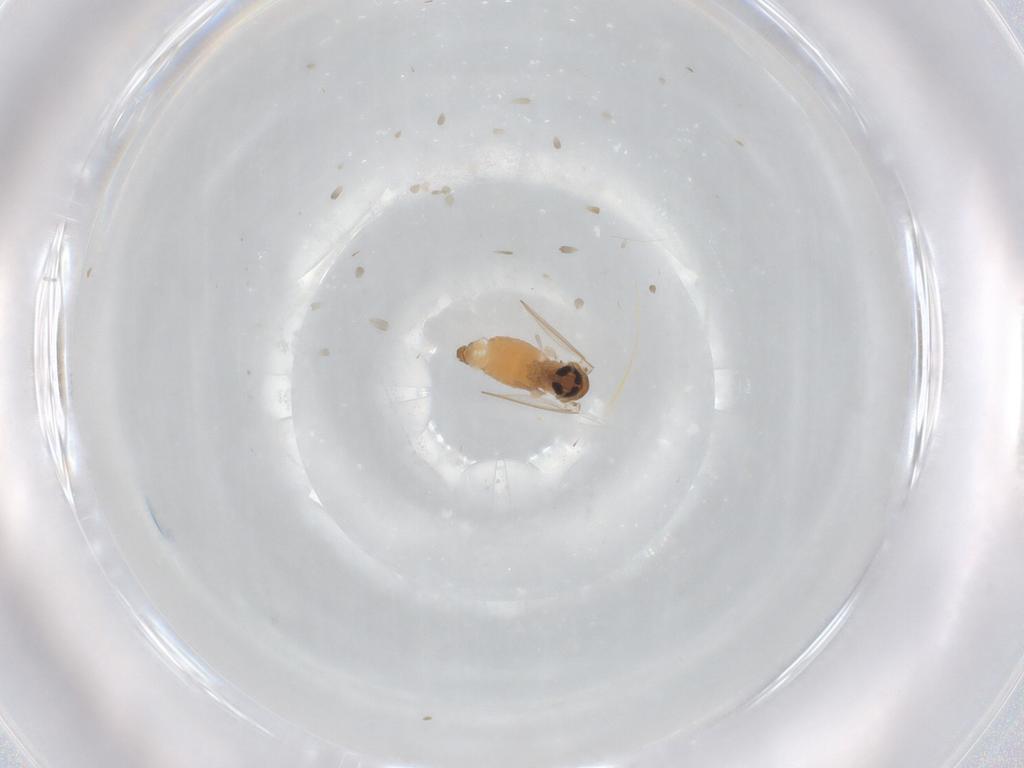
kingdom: Animalia
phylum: Arthropoda
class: Insecta
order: Diptera
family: Psychodidae
